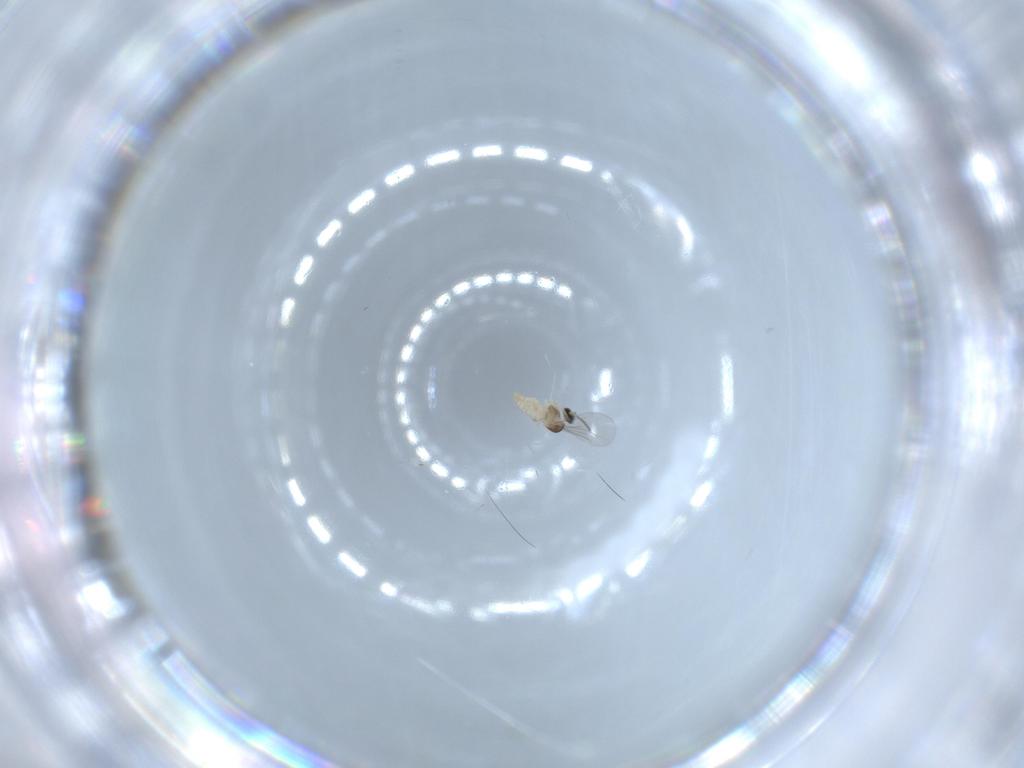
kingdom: Animalia
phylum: Arthropoda
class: Insecta
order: Diptera
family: Cecidomyiidae
